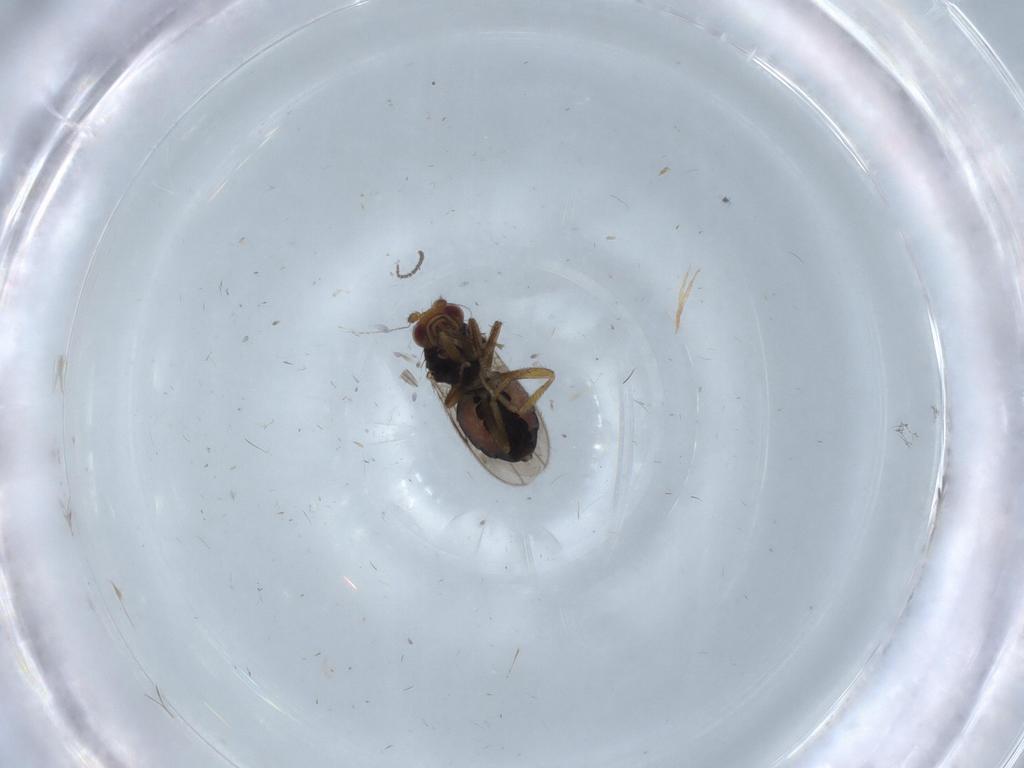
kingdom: Animalia
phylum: Arthropoda
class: Insecta
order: Diptera
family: Sphaeroceridae
